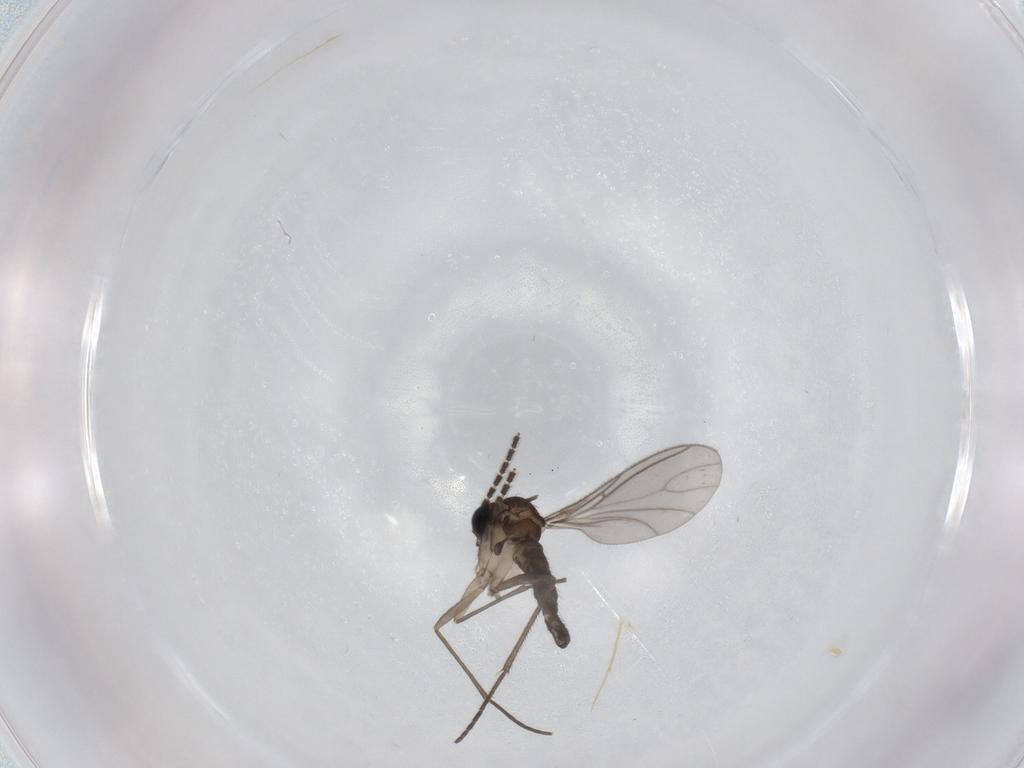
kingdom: Animalia
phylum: Arthropoda
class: Insecta
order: Diptera
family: Sciaridae
